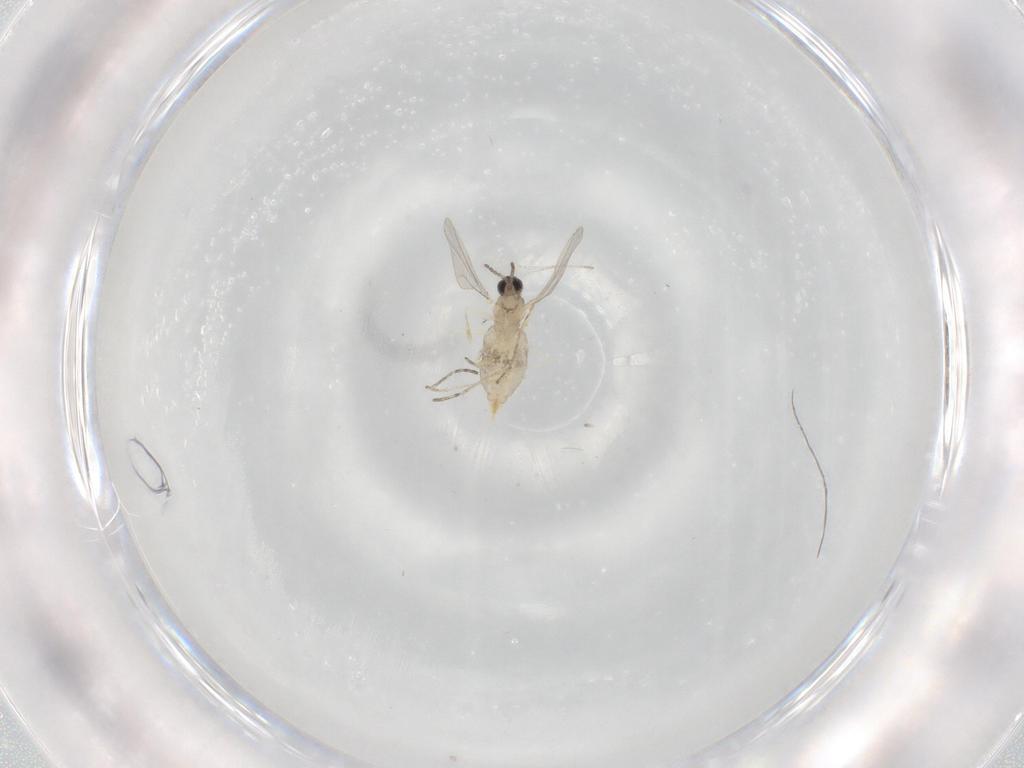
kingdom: Animalia
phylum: Arthropoda
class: Insecta
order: Diptera
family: Cecidomyiidae
